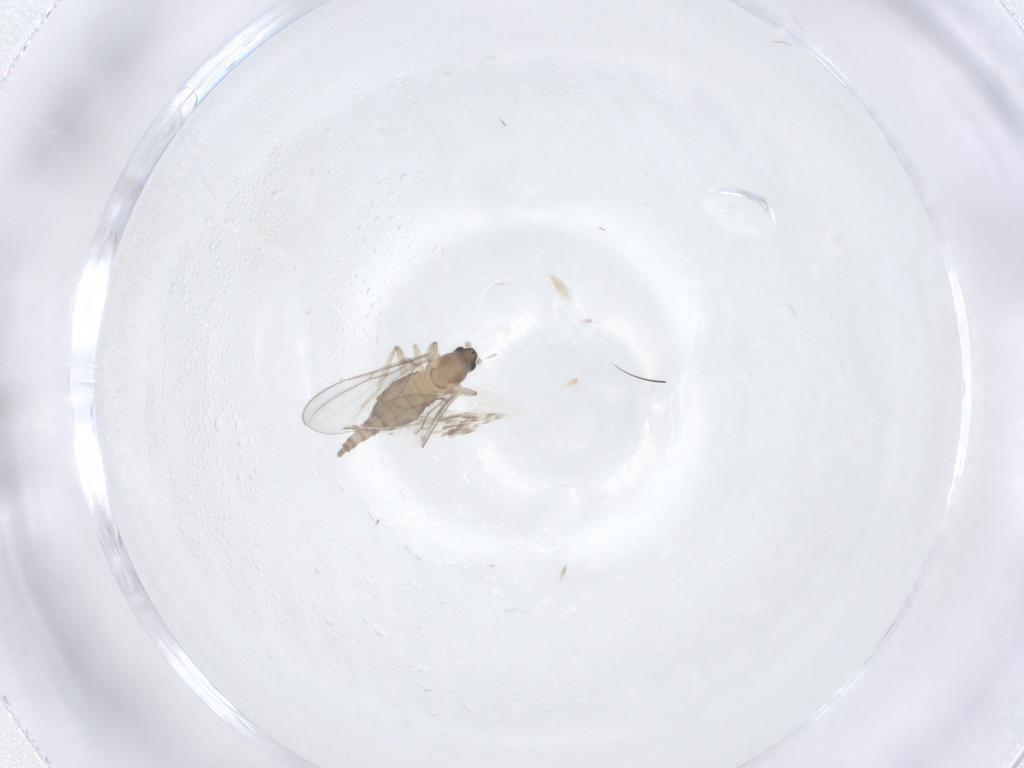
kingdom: Animalia
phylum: Arthropoda
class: Insecta
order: Diptera
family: Cecidomyiidae
